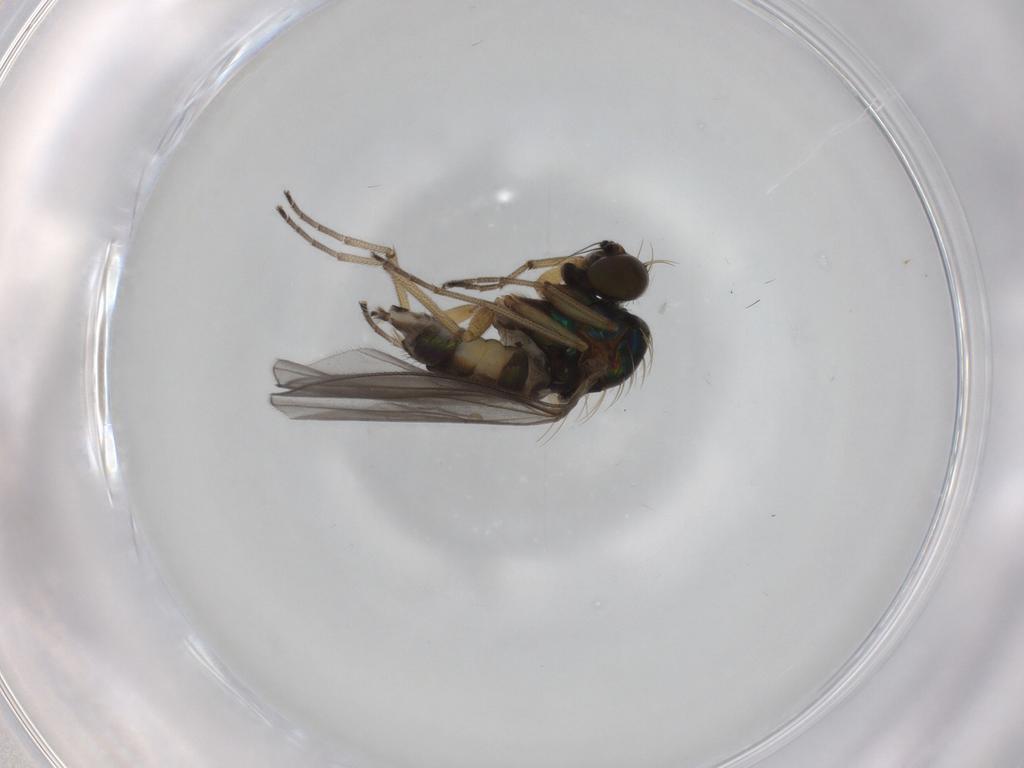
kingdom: Animalia
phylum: Arthropoda
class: Insecta
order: Diptera
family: Dolichopodidae
